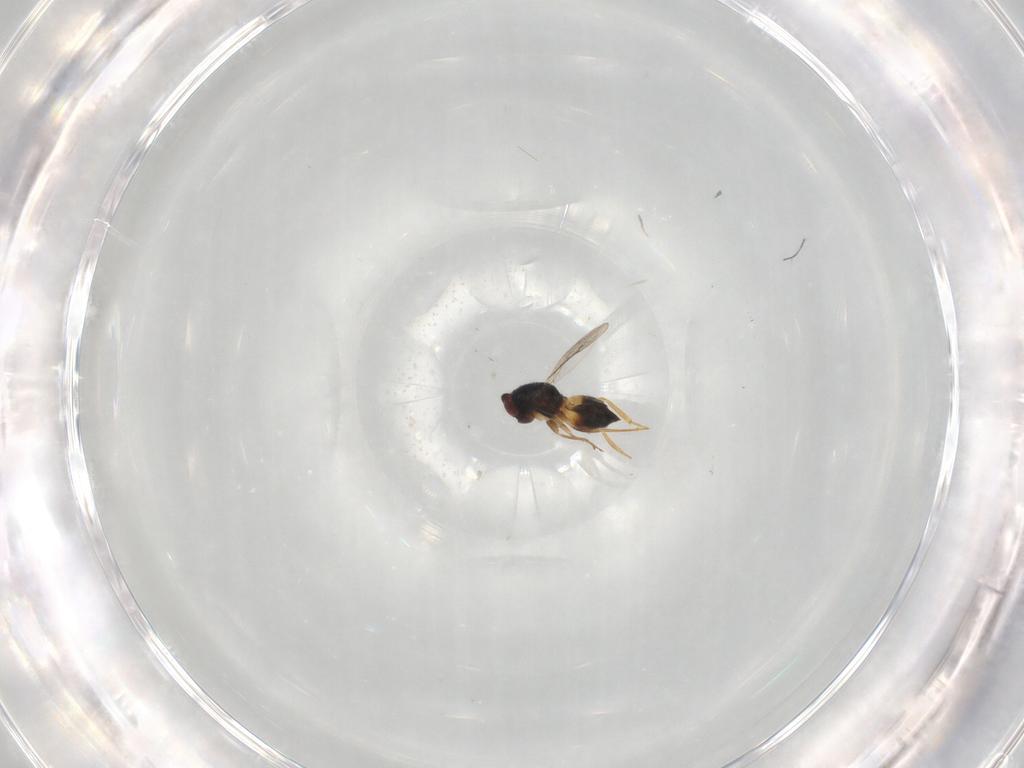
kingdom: Animalia
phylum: Arthropoda
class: Insecta
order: Hymenoptera
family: Eulophidae
